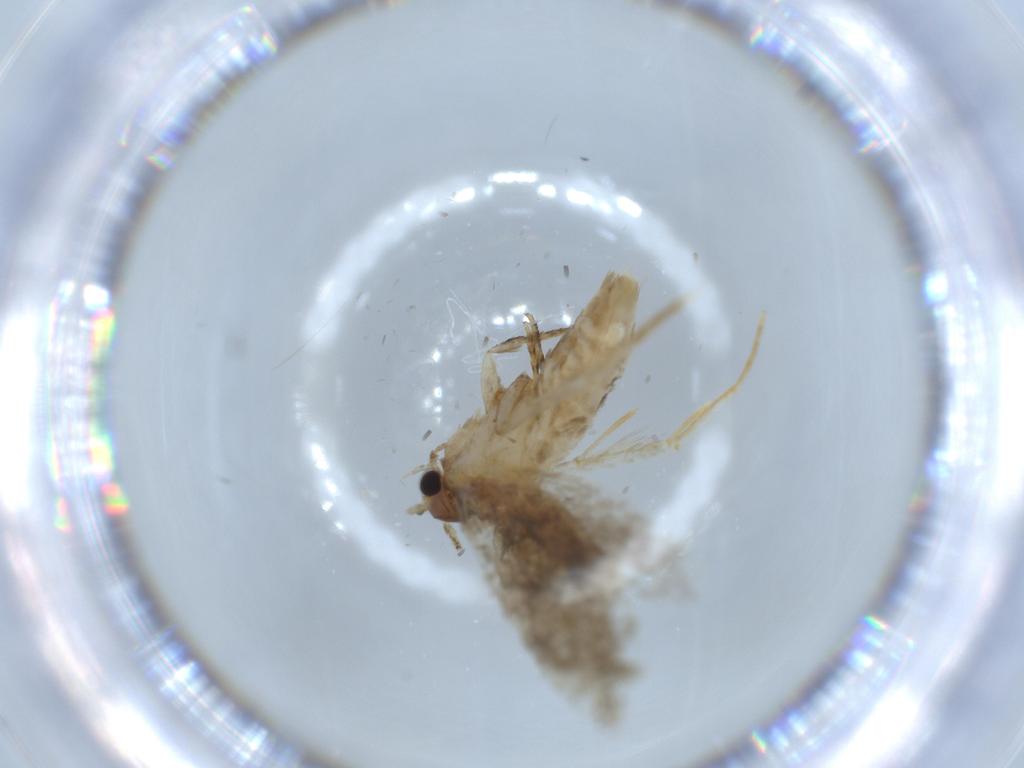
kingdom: Animalia
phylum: Arthropoda
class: Insecta
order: Lepidoptera
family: Tineidae
